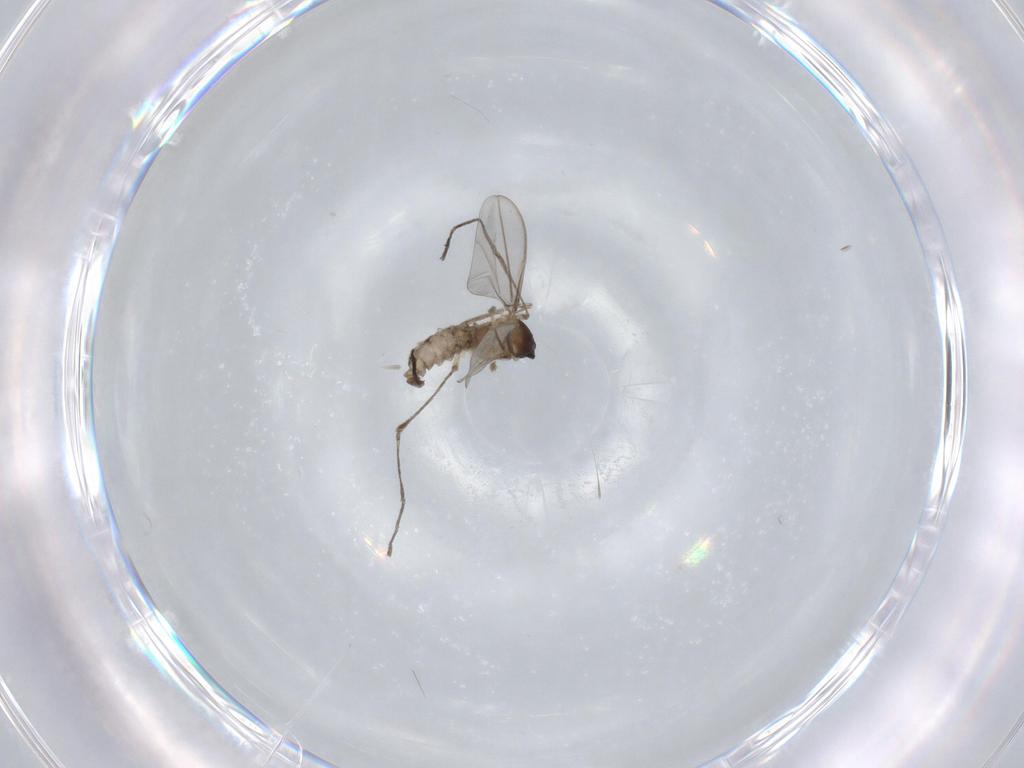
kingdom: Animalia
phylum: Arthropoda
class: Insecta
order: Diptera
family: Cecidomyiidae
